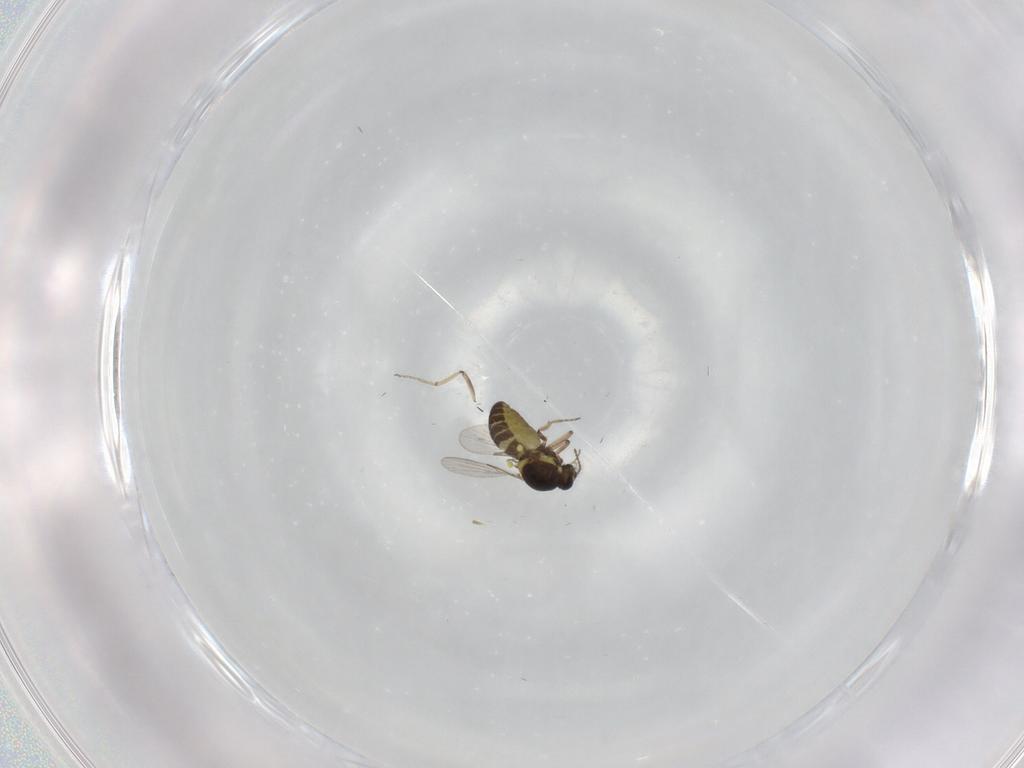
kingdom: Animalia
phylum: Arthropoda
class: Insecta
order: Diptera
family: Ceratopogonidae
